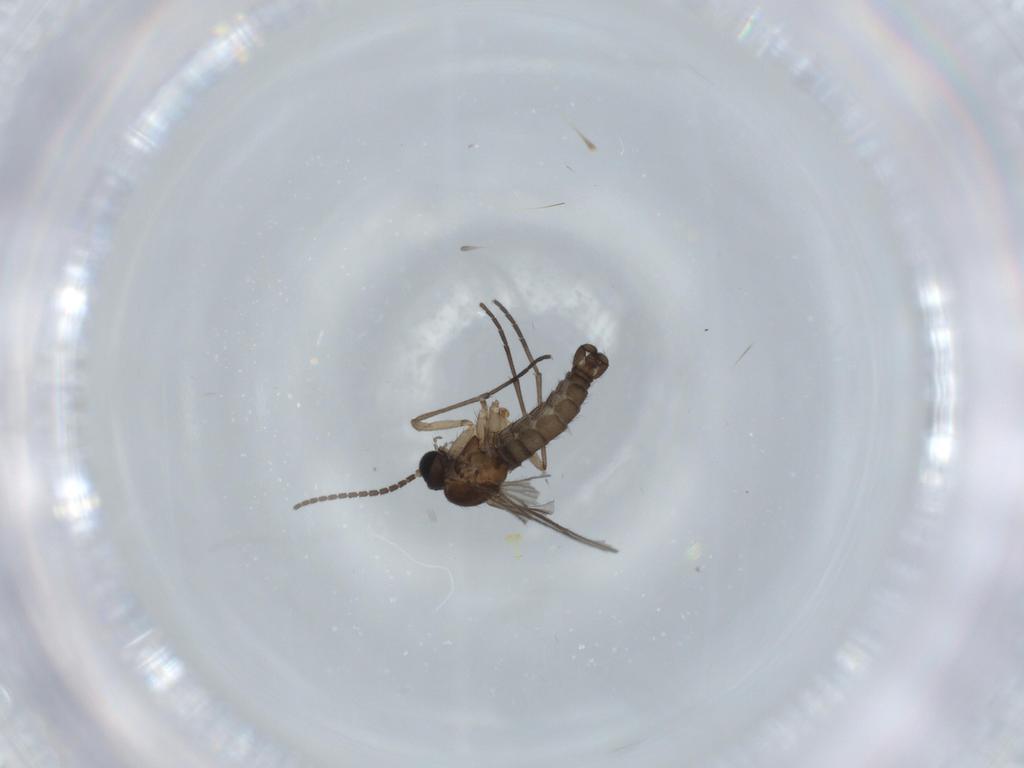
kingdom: Animalia
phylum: Arthropoda
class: Insecta
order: Diptera
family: Sciaridae
